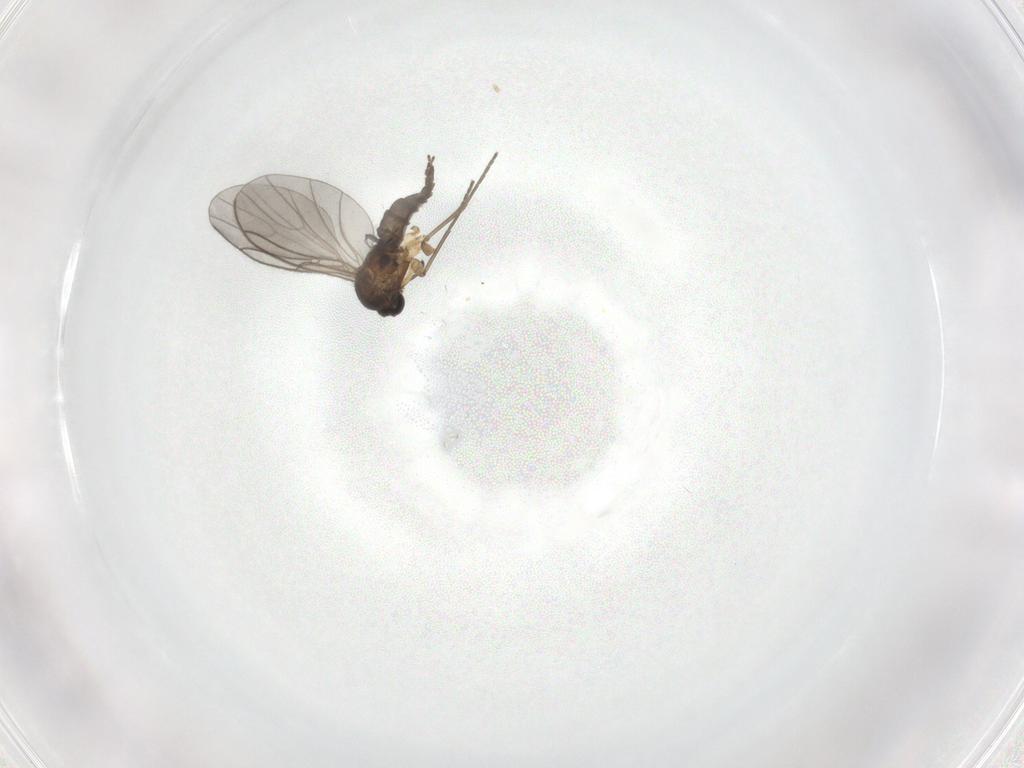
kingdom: Animalia
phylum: Arthropoda
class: Insecta
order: Diptera
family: Sciaridae
